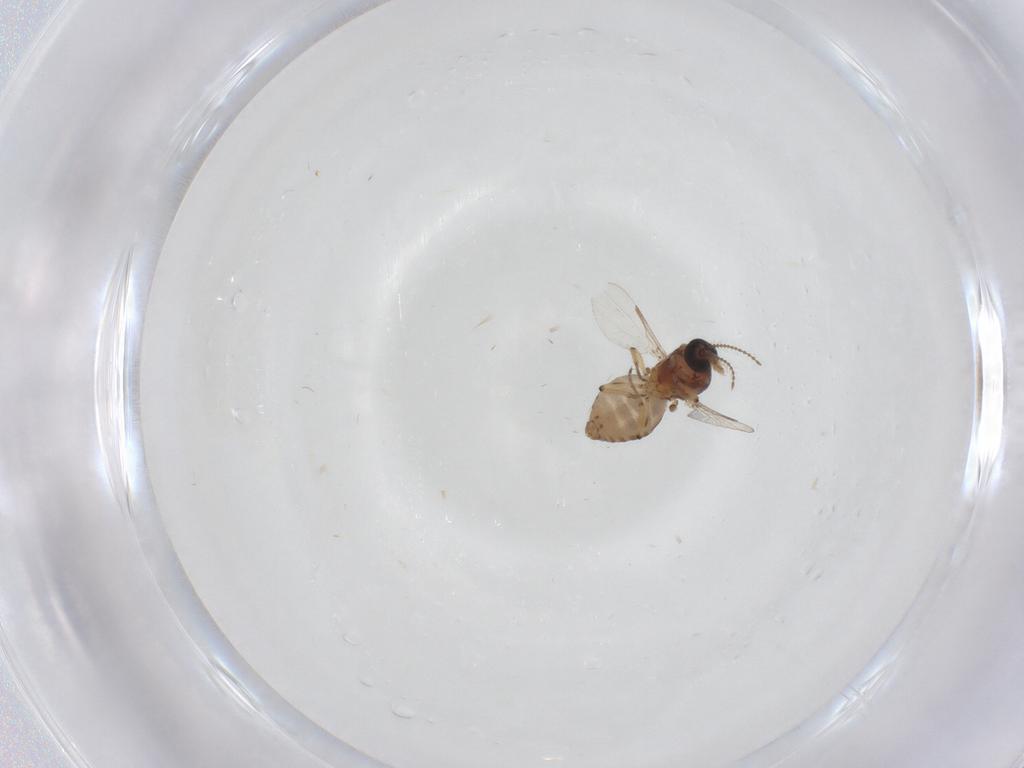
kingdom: Animalia
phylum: Arthropoda
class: Insecta
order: Diptera
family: Ceratopogonidae
